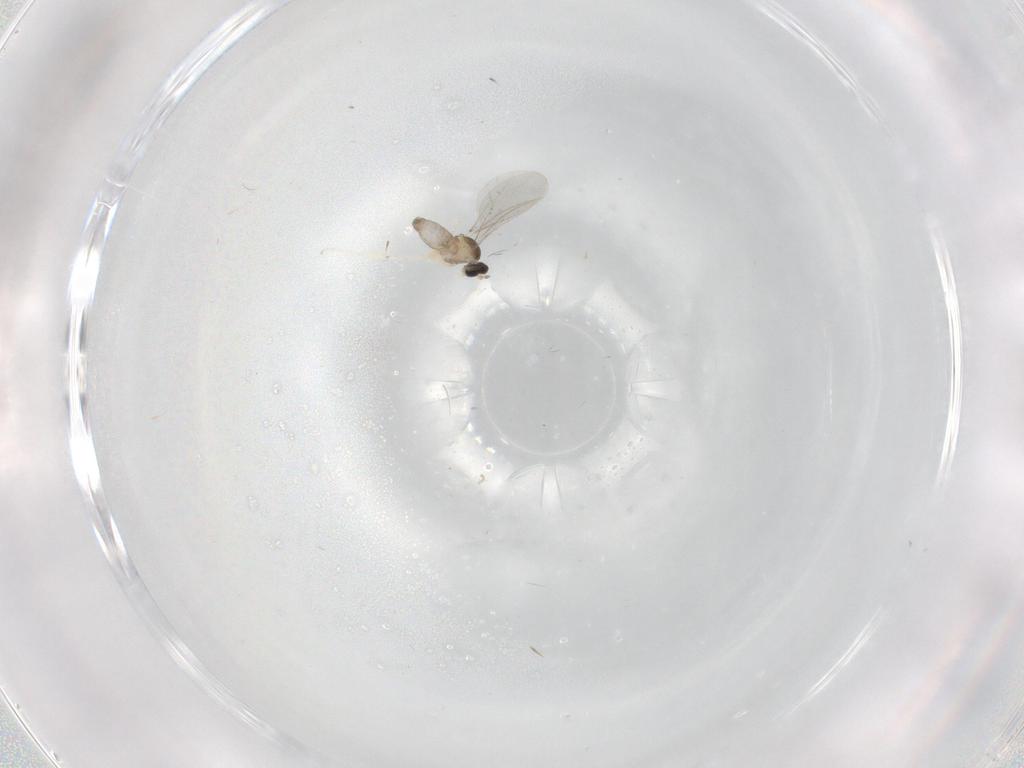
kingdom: Animalia
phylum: Arthropoda
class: Insecta
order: Diptera
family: Cecidomyiidae
